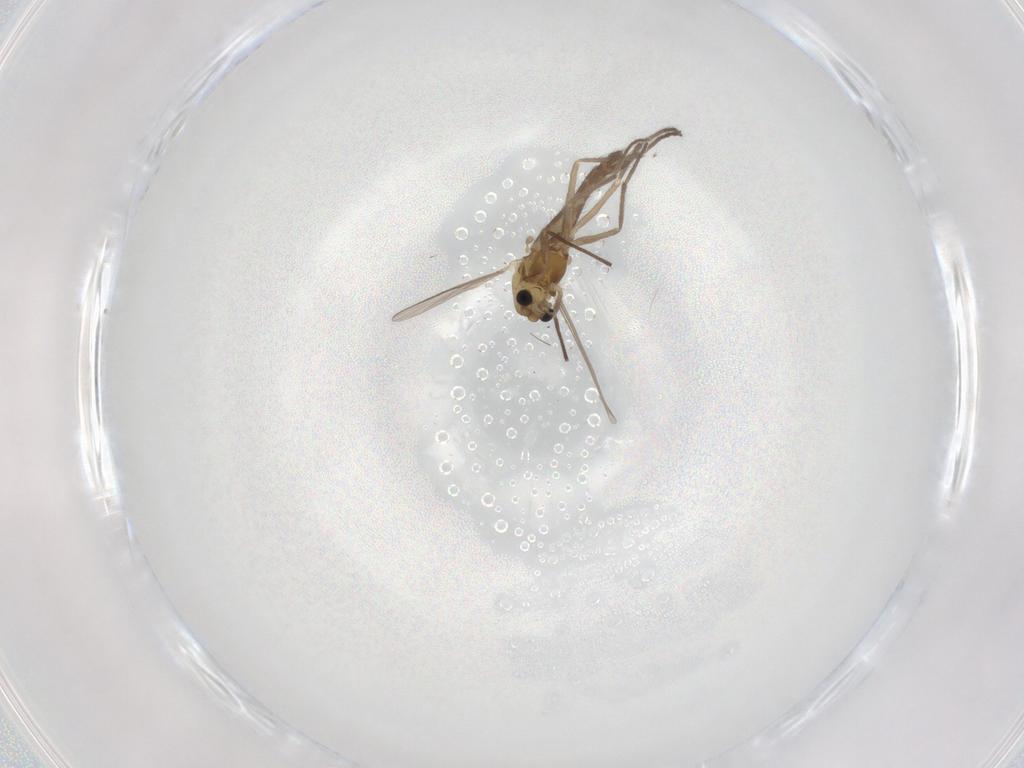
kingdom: Animalia
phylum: Arthropoda
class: Insecta
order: Diptera
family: Chironomidae
